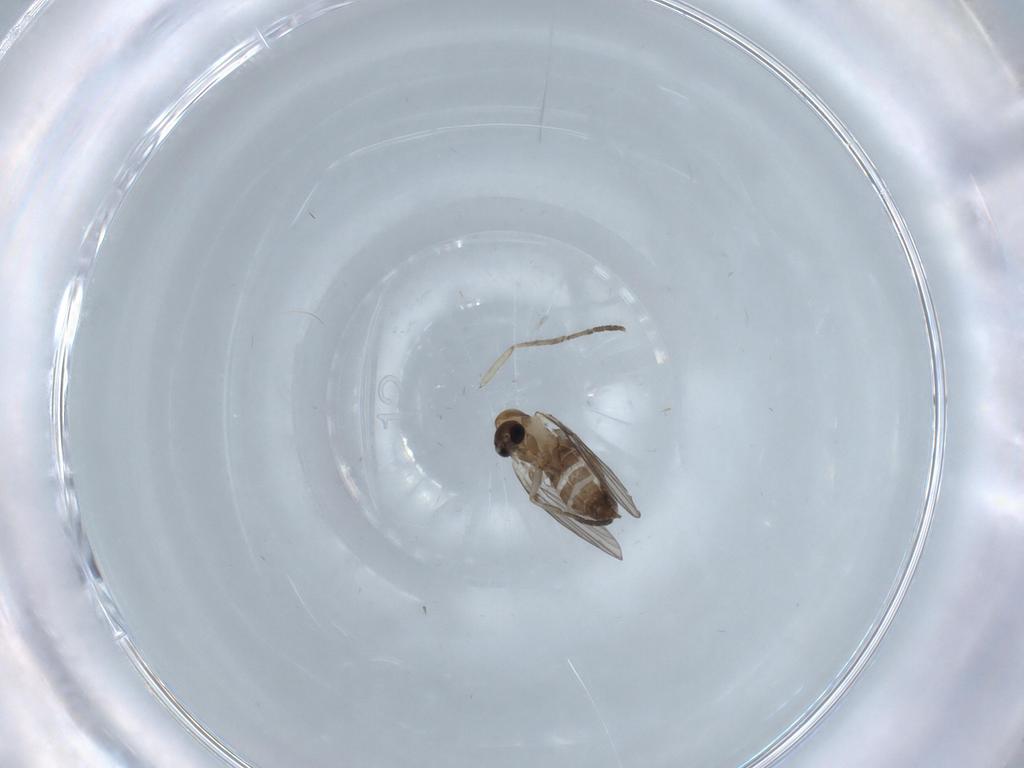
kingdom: Animalia
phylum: Arthropoda
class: Insecta
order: Diptera
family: Psychodidae
